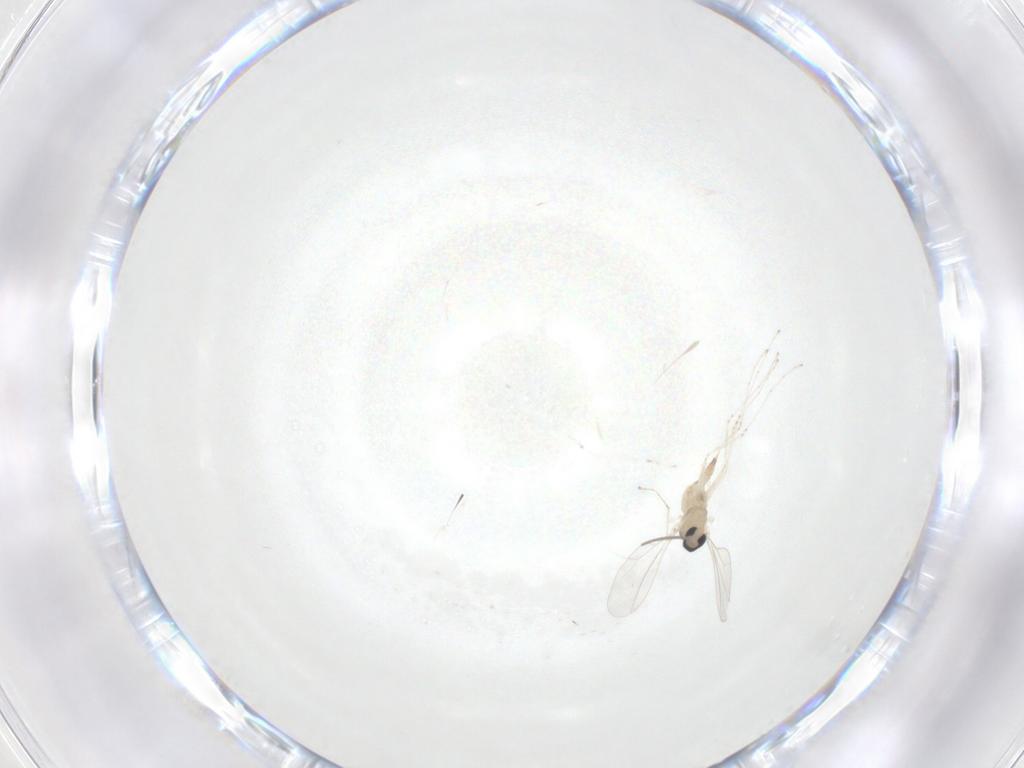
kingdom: Animalia
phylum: Arthropoda
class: Insecta
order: Diptera
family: Cecidomyiidae
